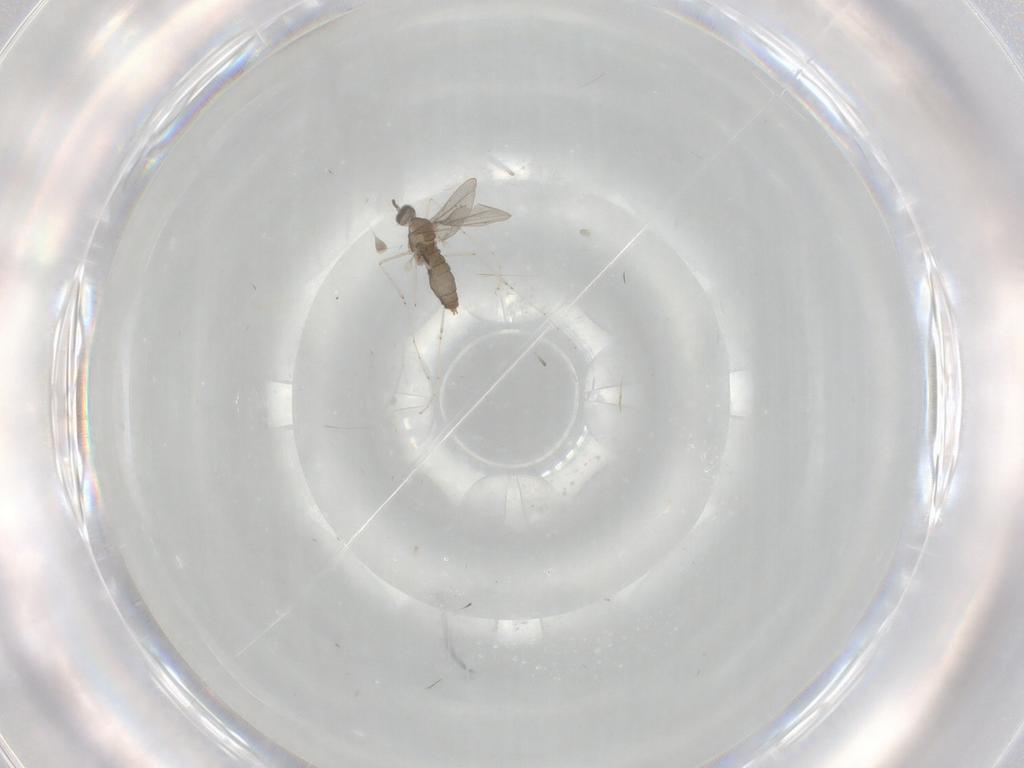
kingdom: Animalia
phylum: Arthropoda
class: Insecta
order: Diptera
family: Cecidomyiidae
